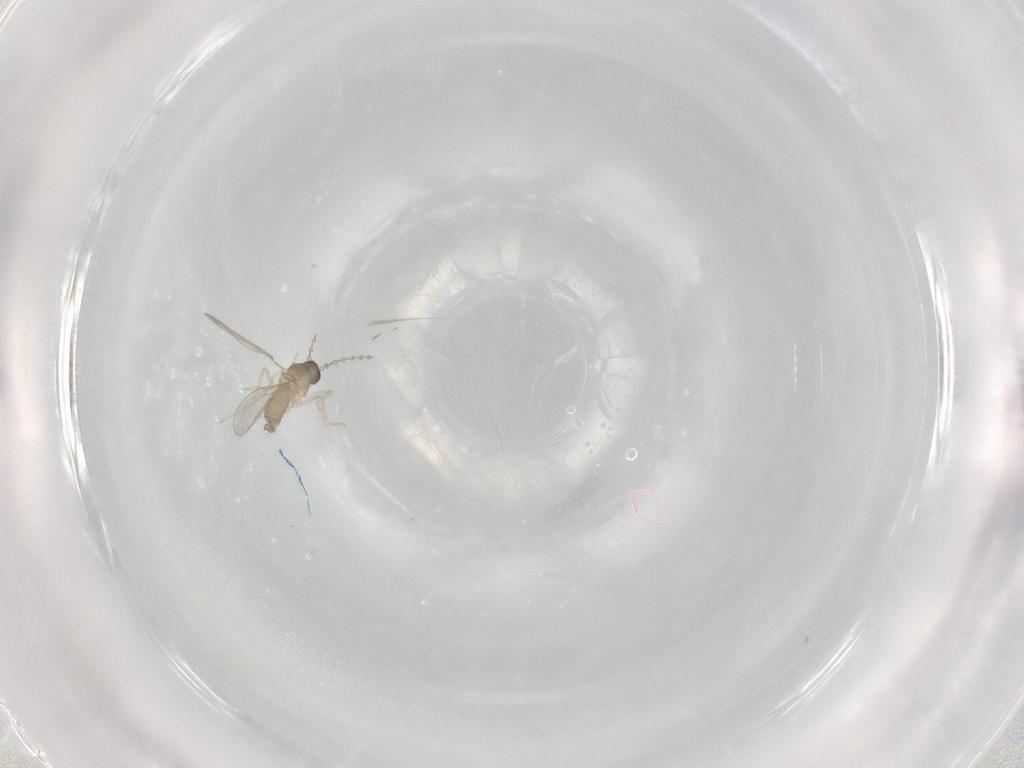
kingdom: Animalia
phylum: Arthropoda
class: Insecta
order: Diptera
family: Cecidomyiidae
